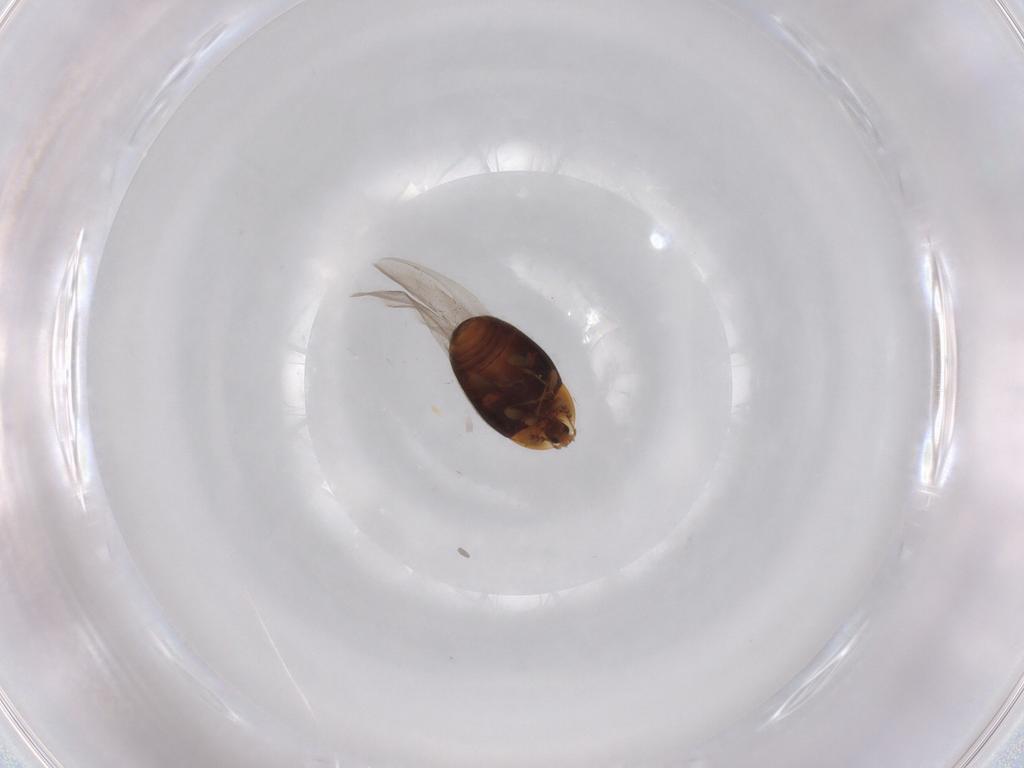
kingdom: Animalia
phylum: Arthropoda
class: Insecta
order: Coleoptera
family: Corylophidae
